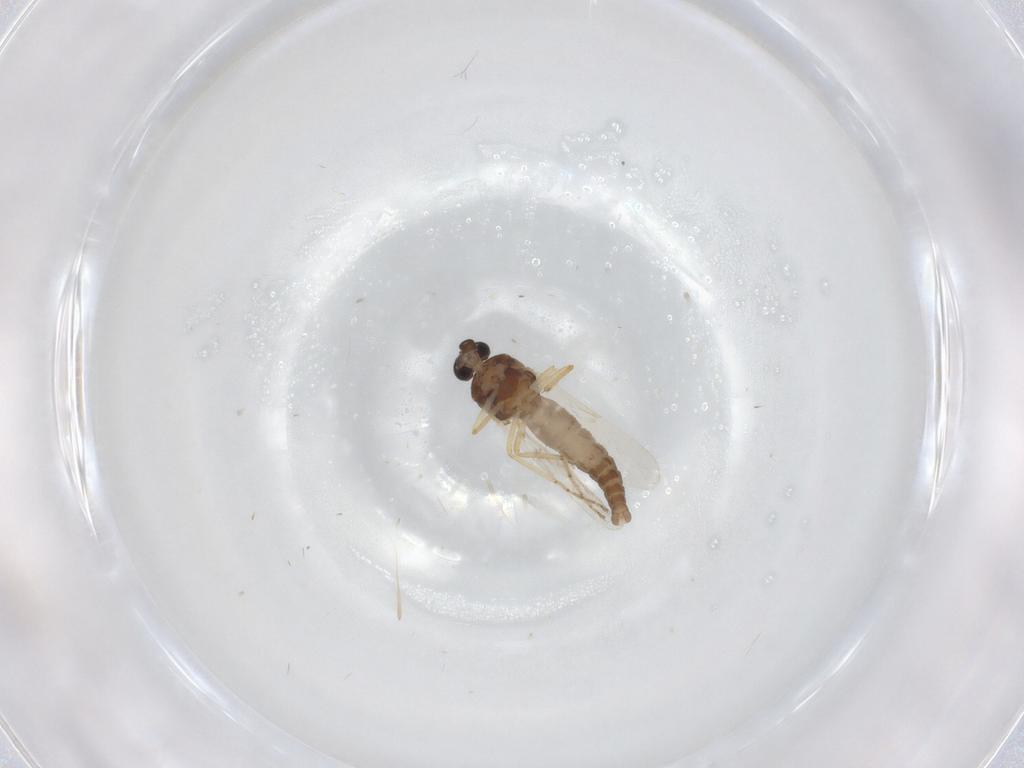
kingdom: Animalia
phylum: Arthropoda
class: Insecta
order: Diptera
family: Ceratopogonidae
